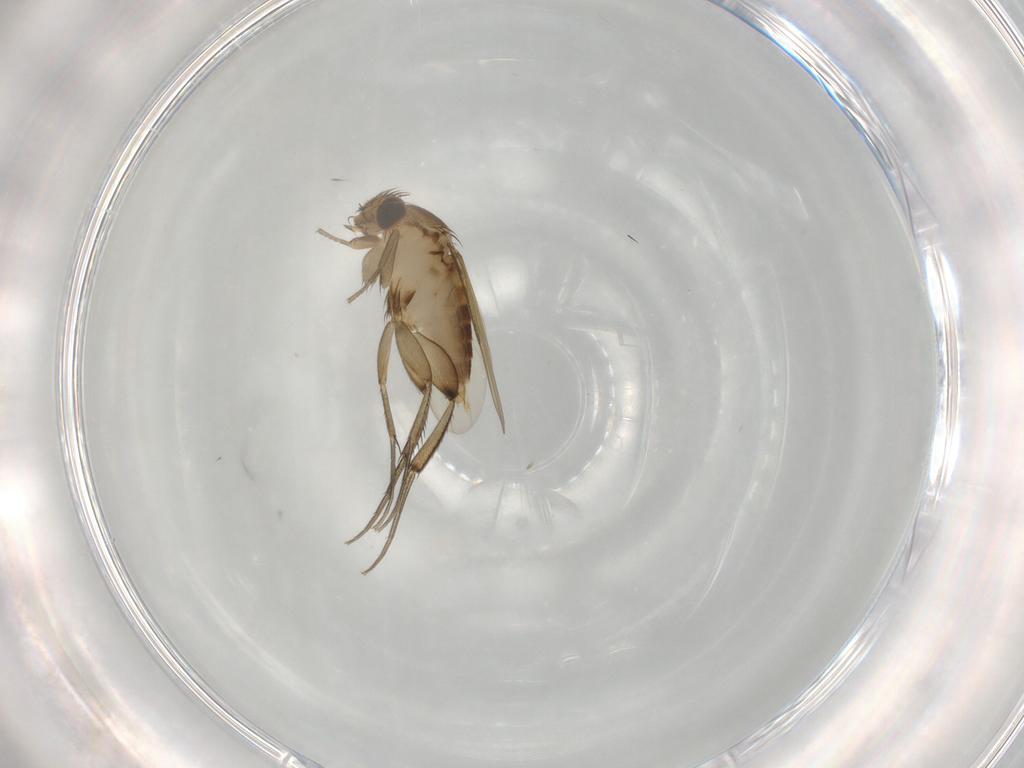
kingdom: Animalia
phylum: Arthropoda
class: Insecta
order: Diptera
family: Phoridae
